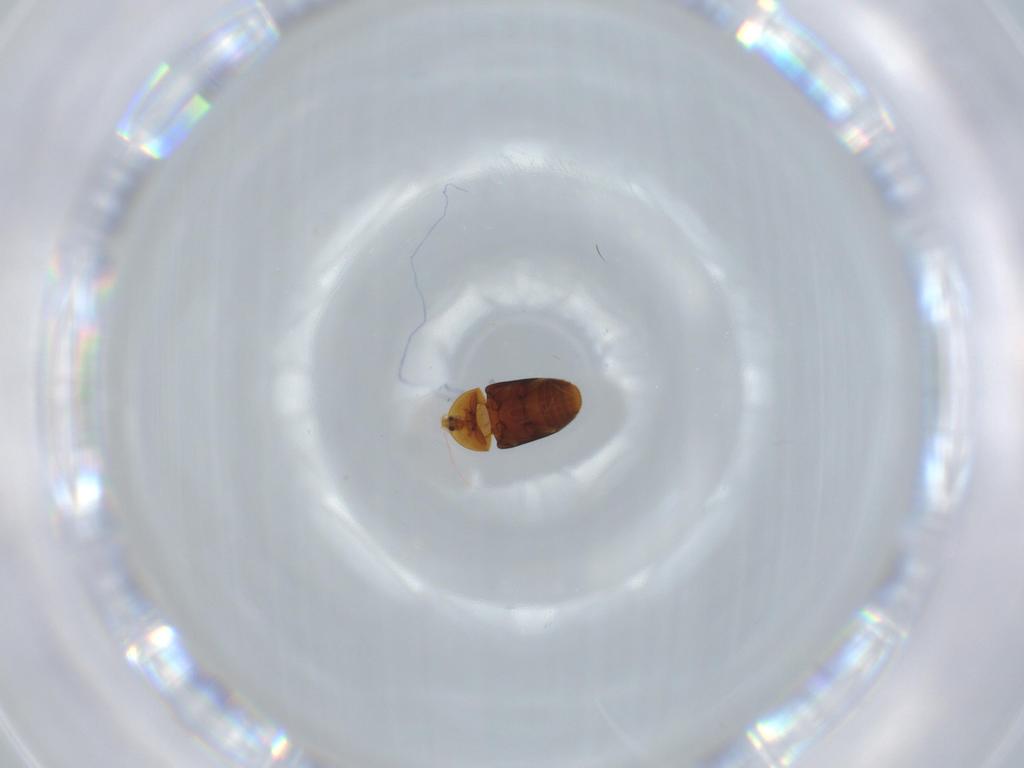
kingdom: Animalia
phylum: Arthropoda
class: Insecta
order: Coleoptera
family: Corylophidae
